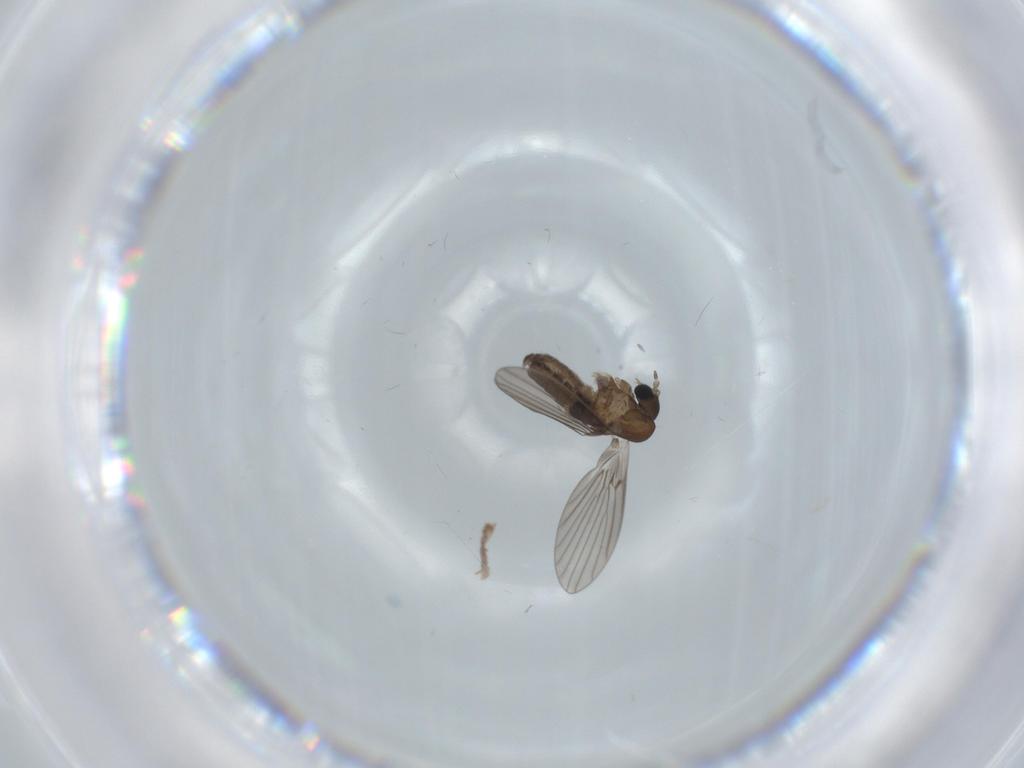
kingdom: Animalia
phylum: Arthropoda
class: Insecta
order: Diptera
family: Psychodidae
